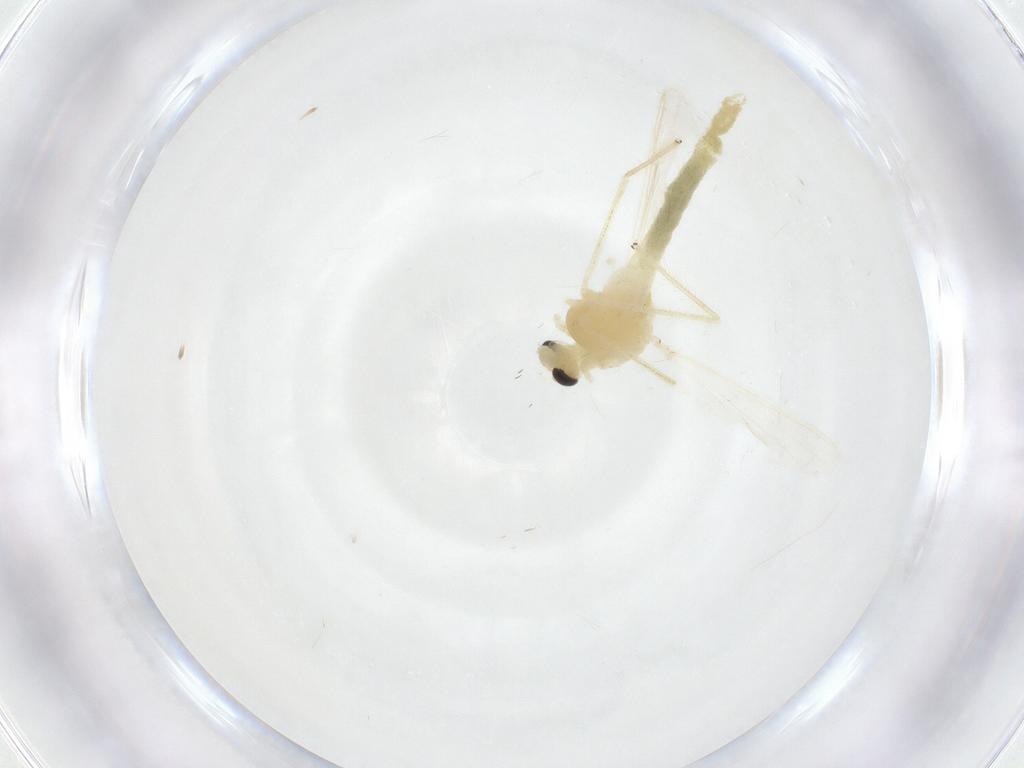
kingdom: Animalia
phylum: Arthropoda
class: Insecta
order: Diptera
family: Chironomidae
